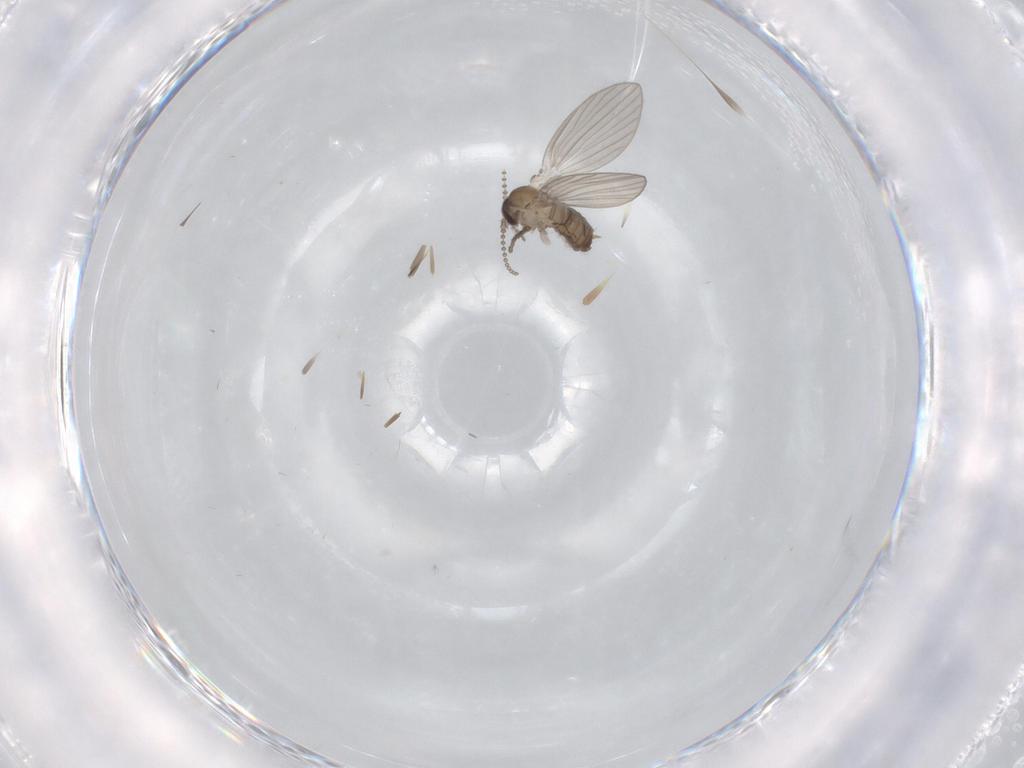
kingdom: Animalia
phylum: Arthropoda
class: Insecta
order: Diptera
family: Psychodidae
